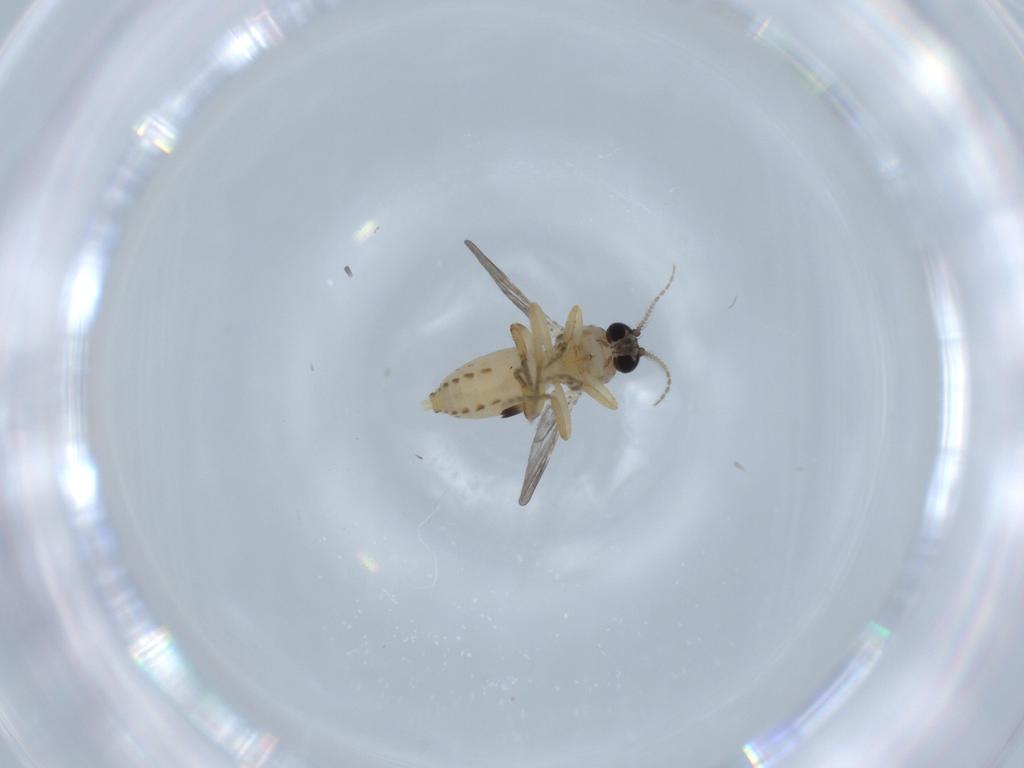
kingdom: Animalia
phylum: Arthropoda
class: Insecta
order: Diptera
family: Ceratopogonidae
